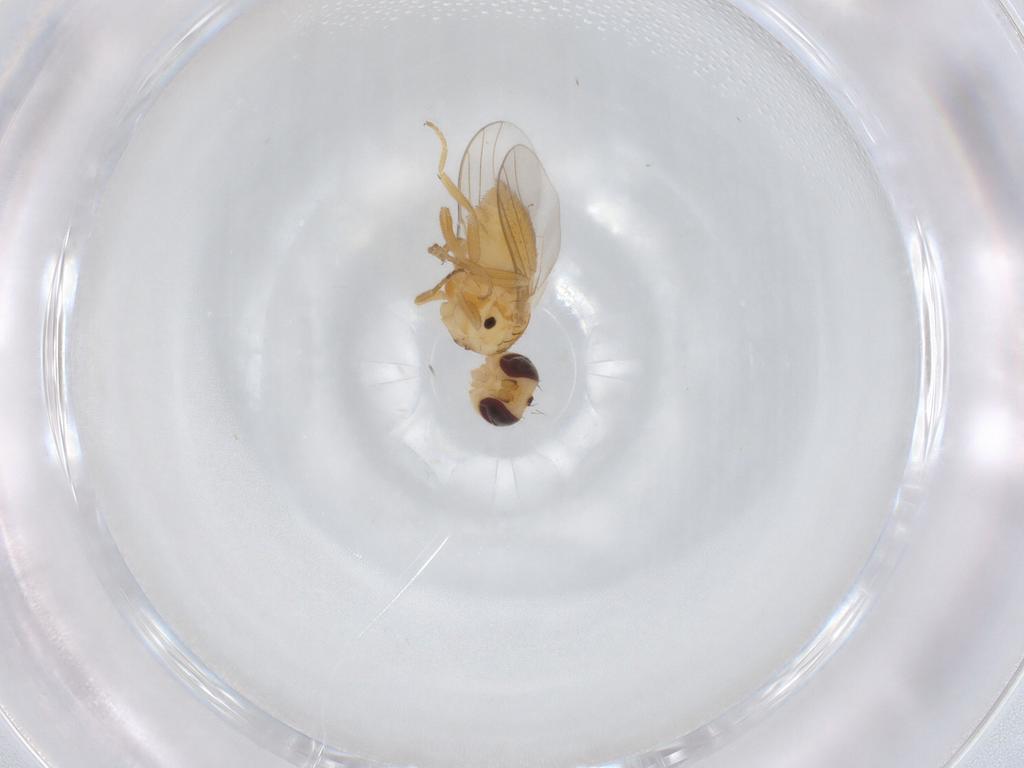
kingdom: Animalia
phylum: Arthropoda
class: Insecta
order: Diptera
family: Chloropidae
